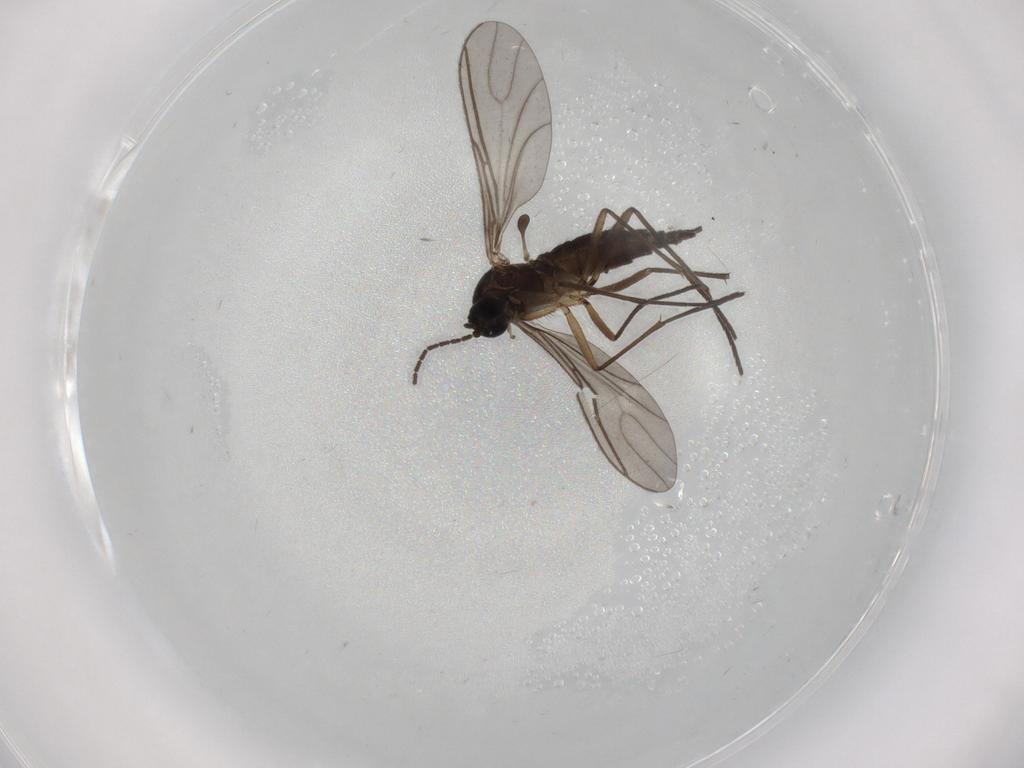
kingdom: Animalia
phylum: Arthropoda
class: Insecta
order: Diptera
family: Sciaridae
